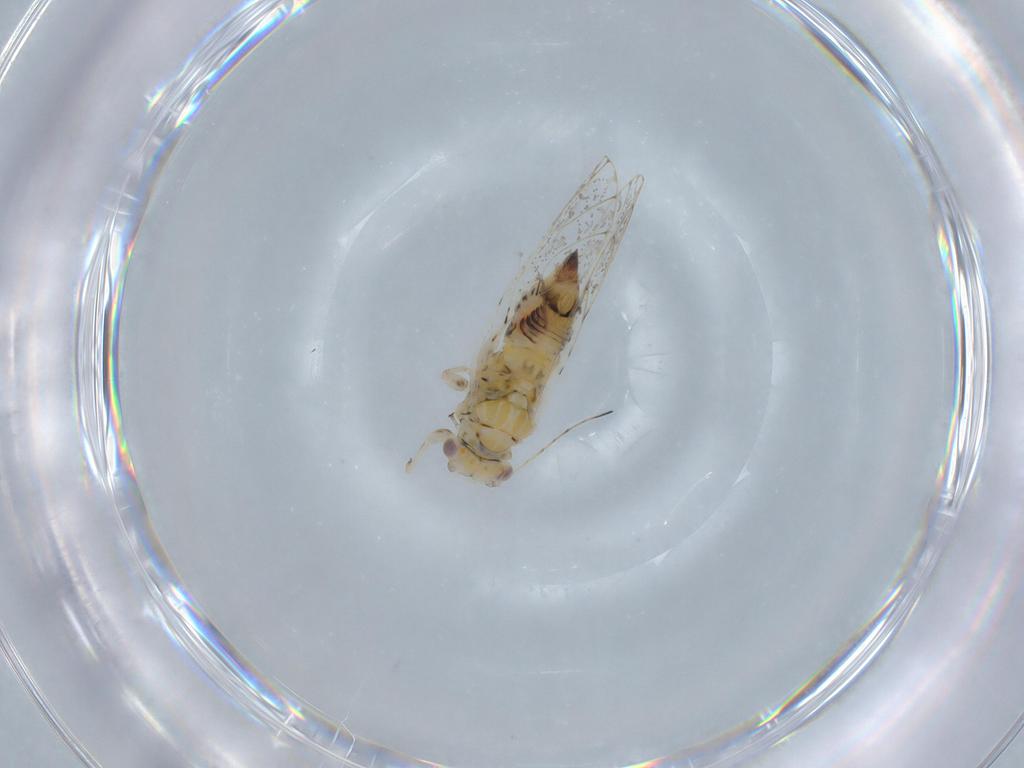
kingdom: Animalia
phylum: Arthropoda
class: Insecta
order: Hemiptera
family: Psyllidae
